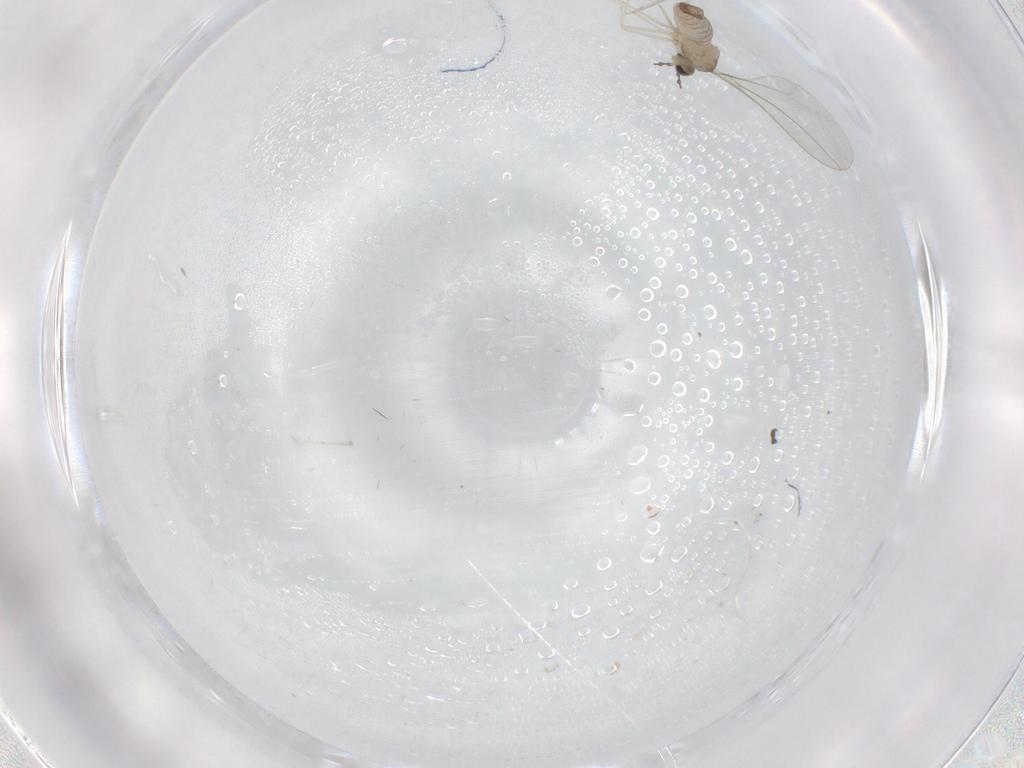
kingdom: Animalia
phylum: Arthropoda
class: Insecta
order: Diptera
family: Cecidomyiidae
